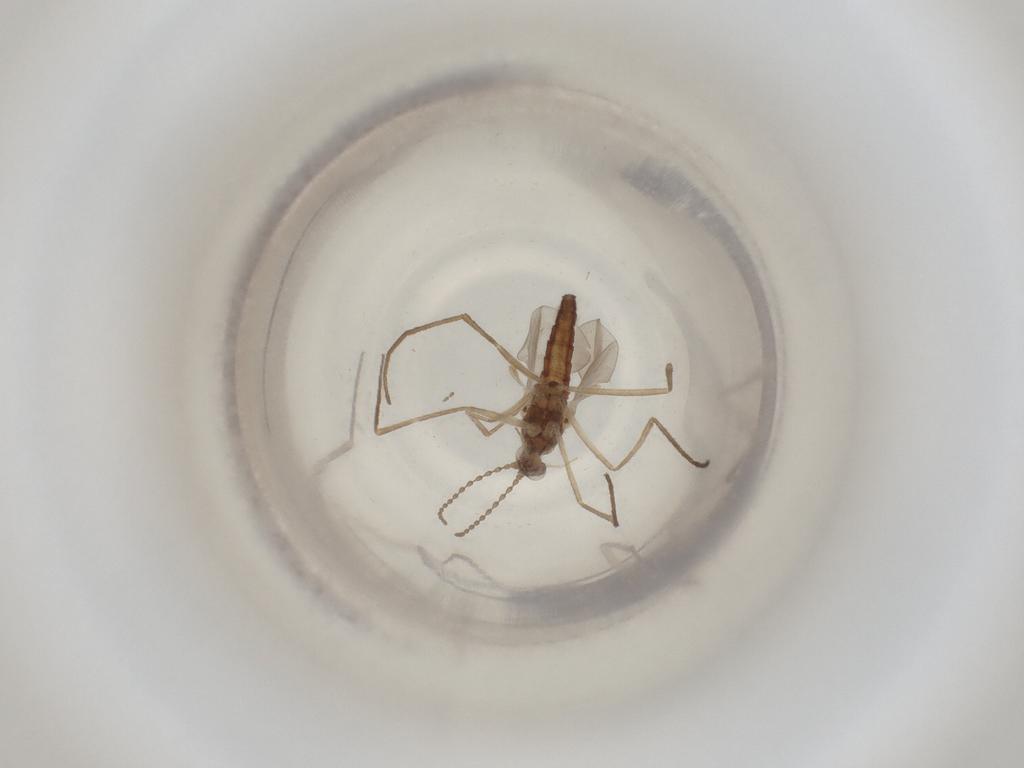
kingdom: Animalia
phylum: Arthropoda
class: Insecta
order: Diptera
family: Cecidomyiidae
